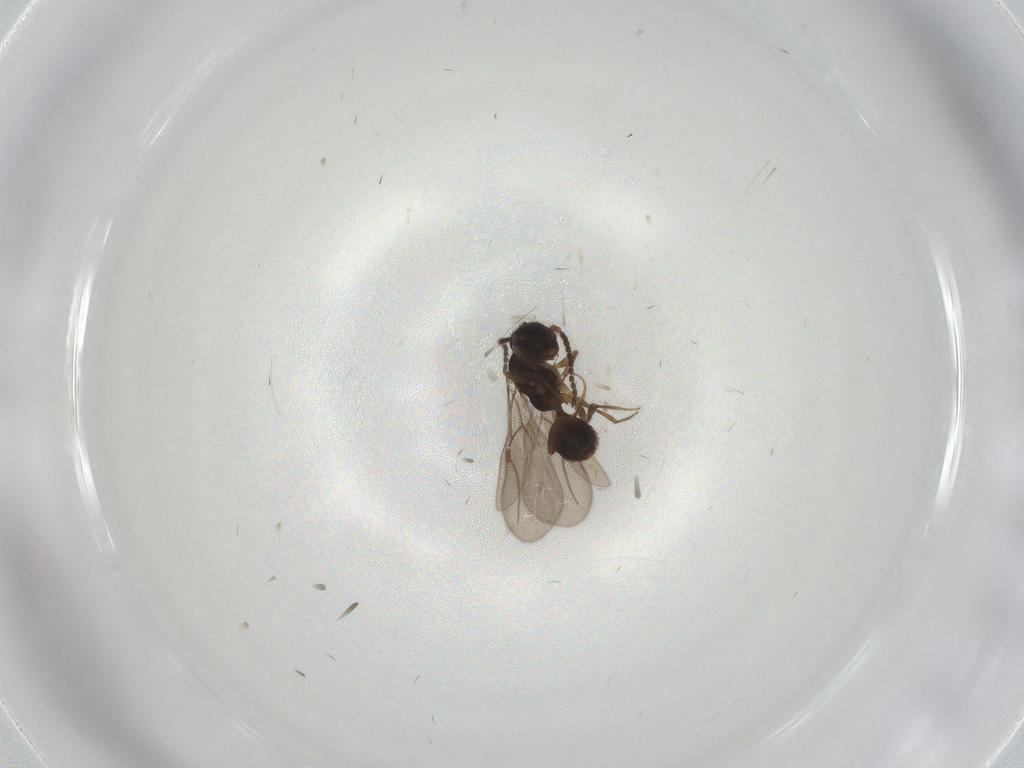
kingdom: Animalia
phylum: Arthropoda
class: Insecta
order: Hymenoptera
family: Bethylidae
